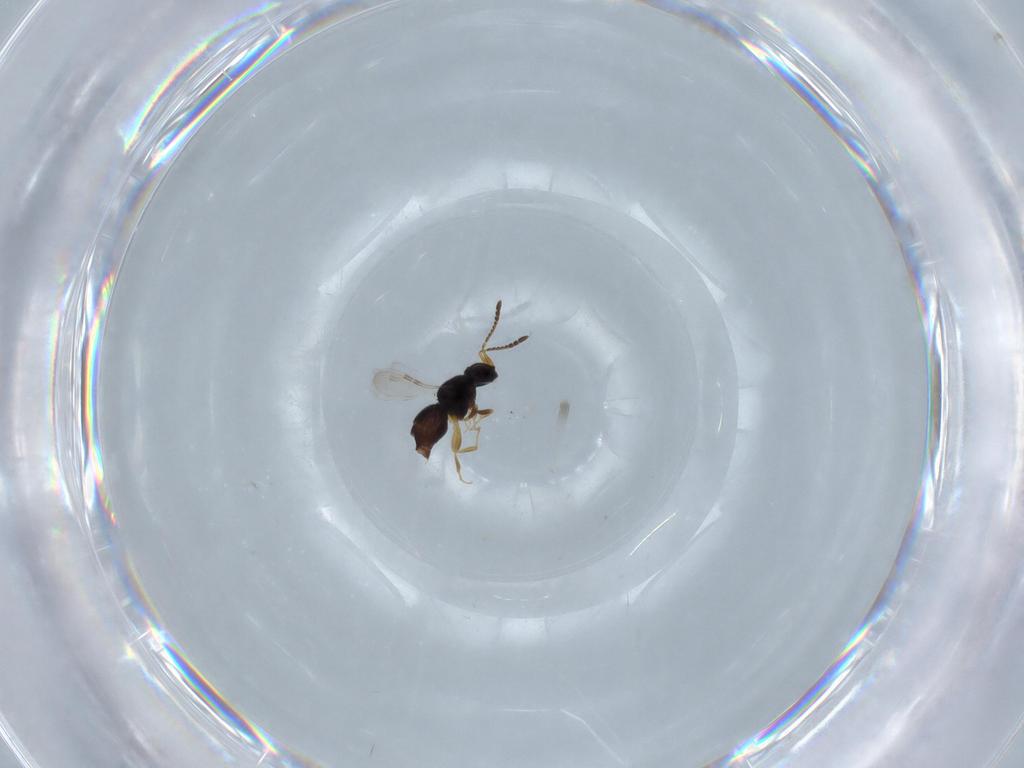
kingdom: Animalia
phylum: Arthropoda
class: Insecta
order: Hymenoptera
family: Ceraphronidae
